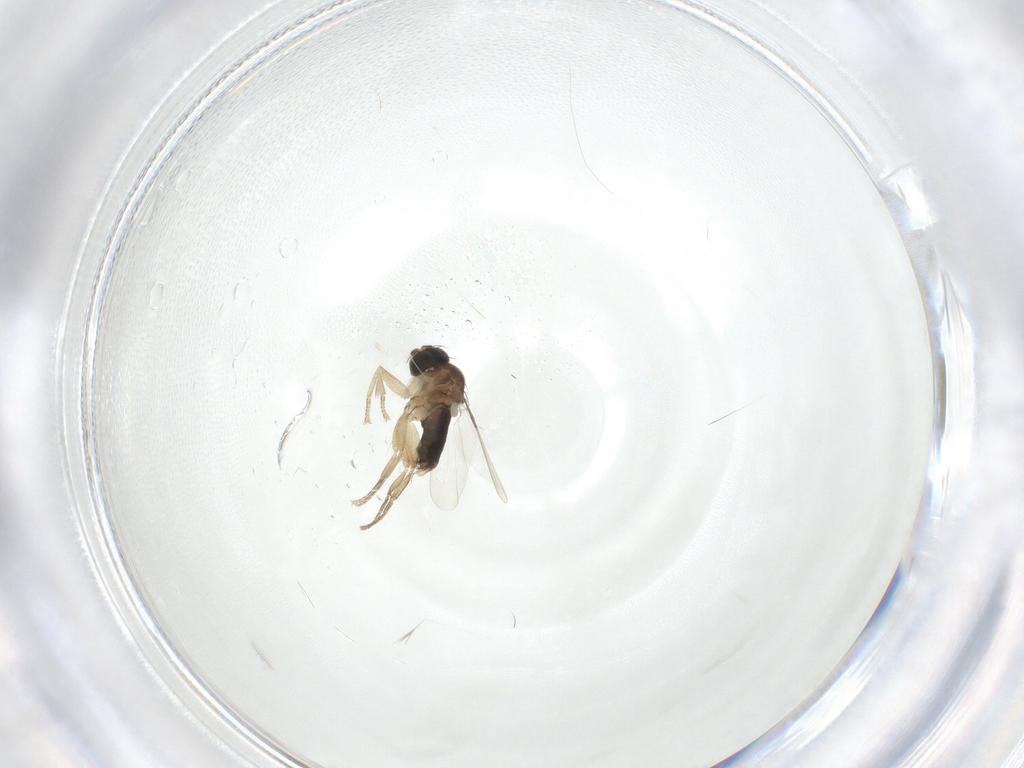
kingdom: Animalia
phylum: Arthropoda
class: Insecta
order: Diptera
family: Phoridae
